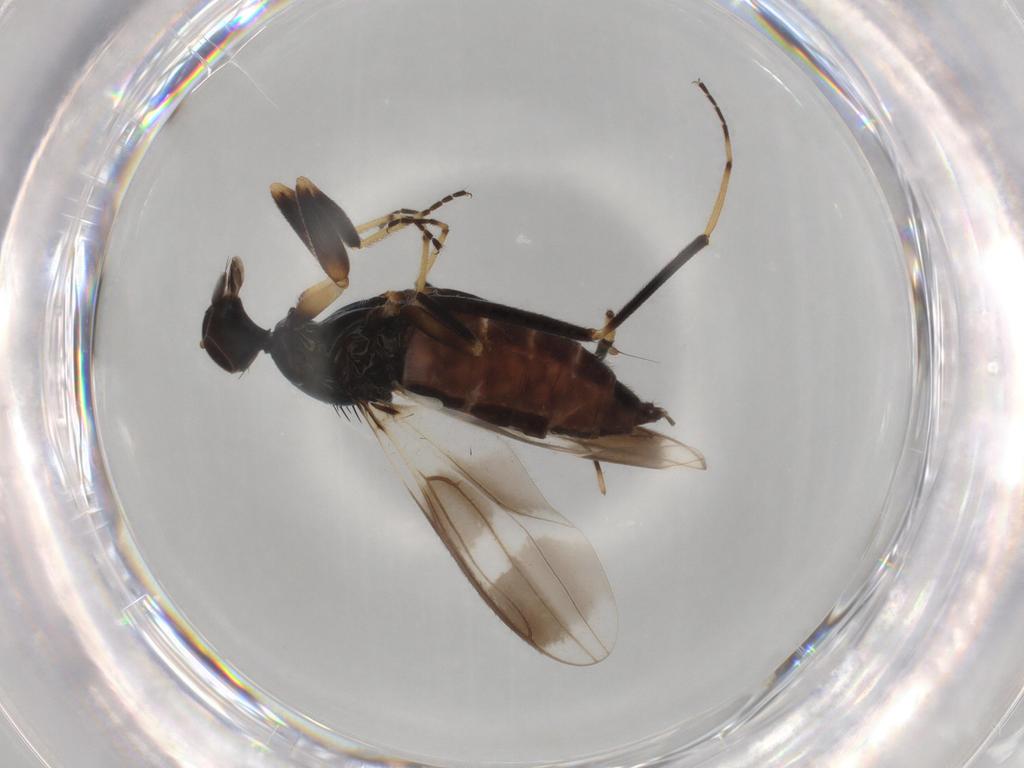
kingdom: Animalia
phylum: Arthropoda
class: Insecta
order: Diptera
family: Hybotidae
